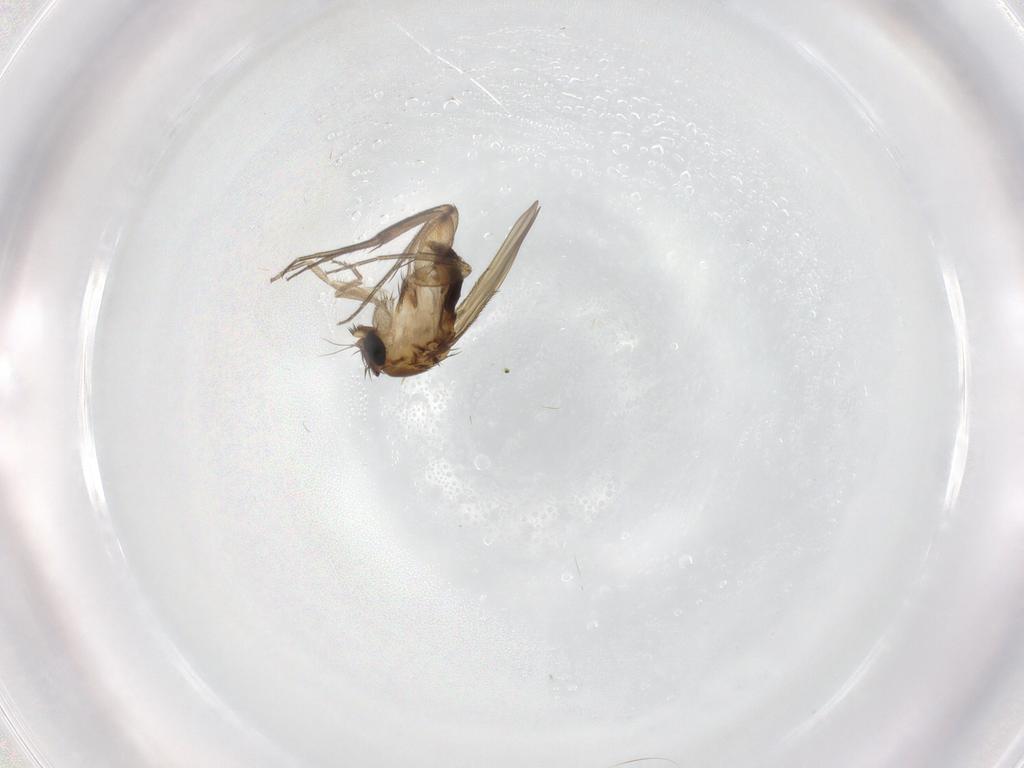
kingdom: Animalia
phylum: Arthropoda
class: Insecta
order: Diptera
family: Phoridae
